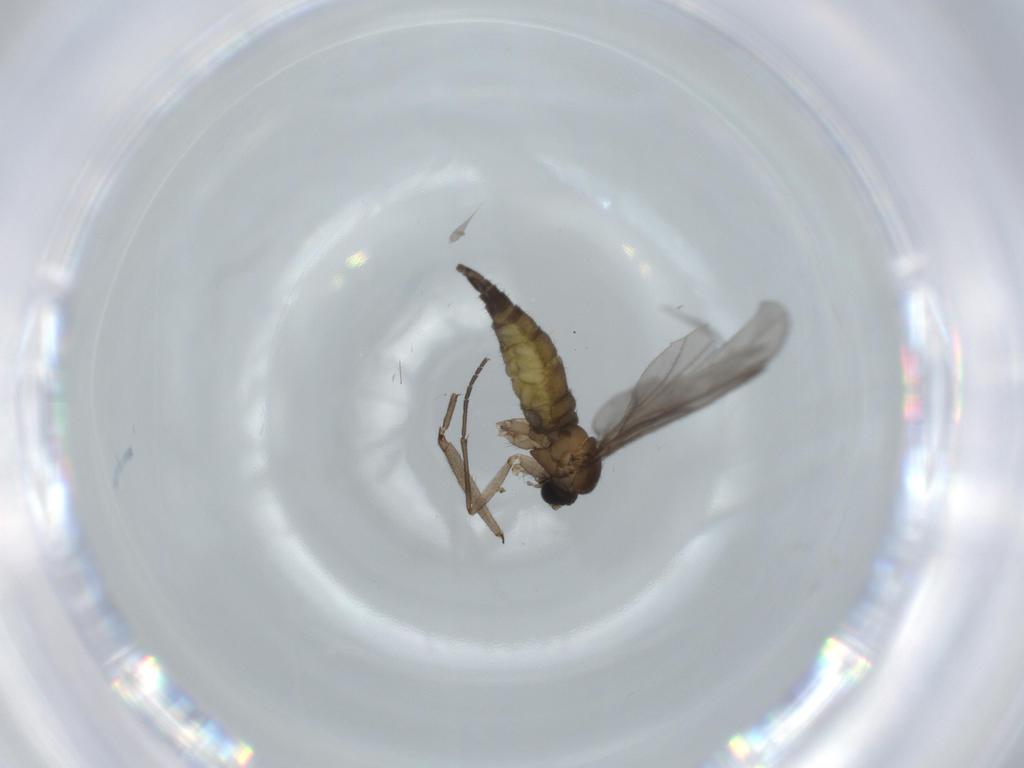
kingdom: Animalia
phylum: Arthropoda
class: Insecta
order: Diptera
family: Sciaridae
